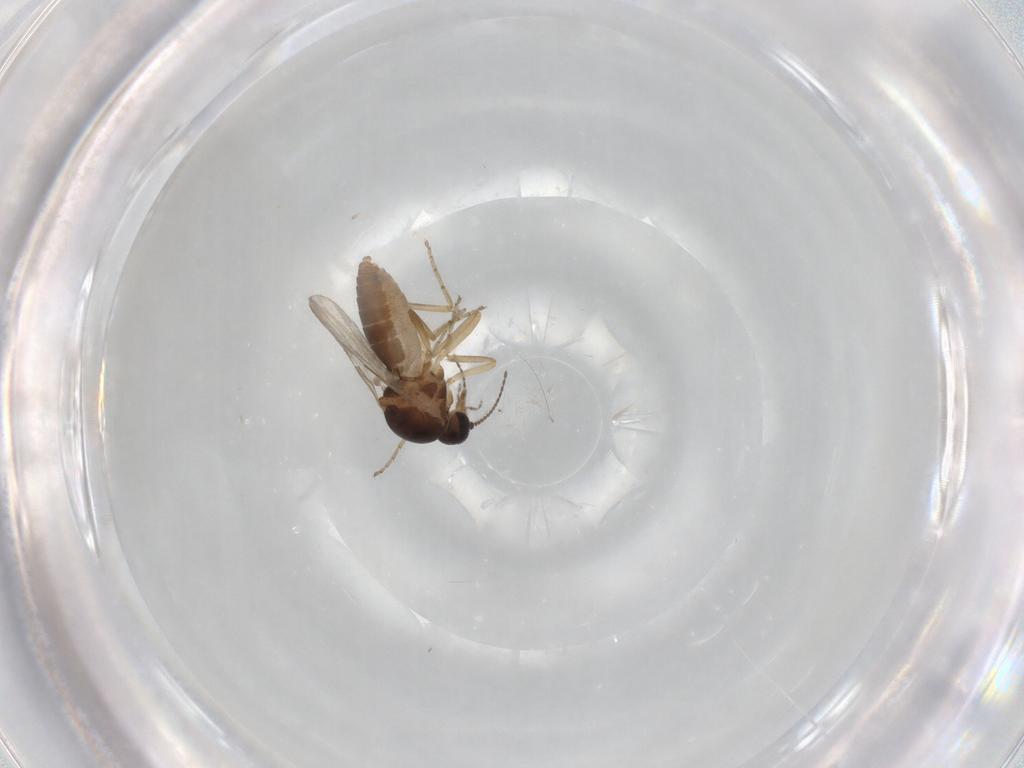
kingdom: Animalia
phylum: Arthropoda
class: Insecta
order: Diptera
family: Ceratopogonidae
